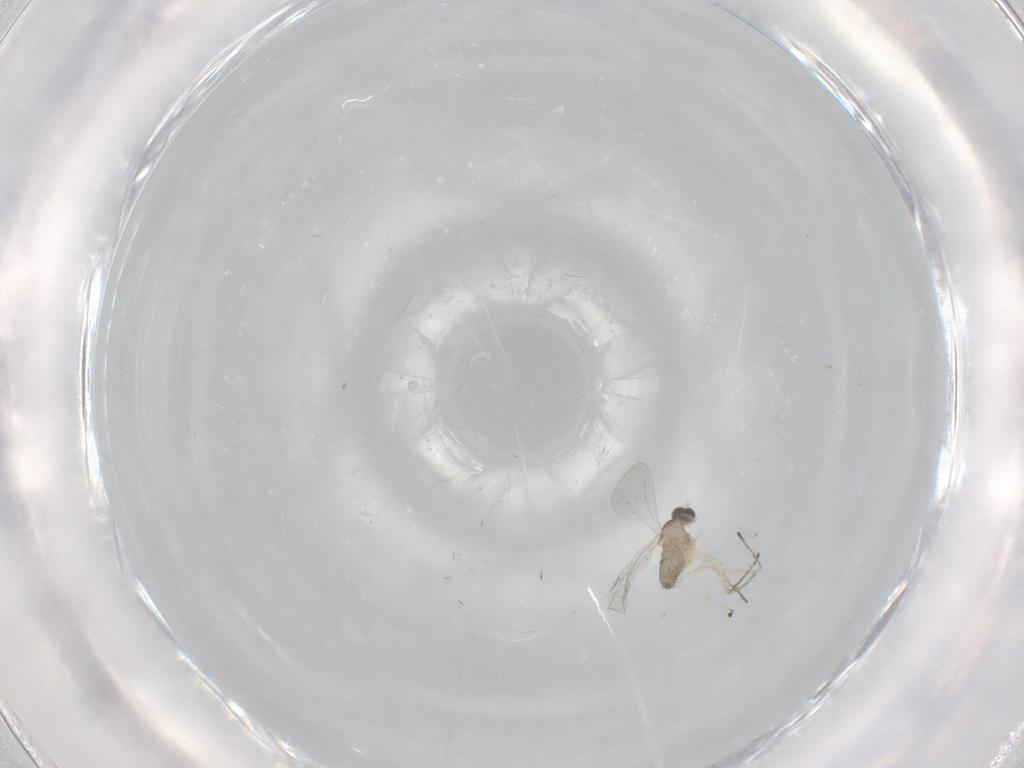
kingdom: Animalia
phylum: Arthropoda
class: Insecta
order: Diptera
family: Cecidomyiidae
